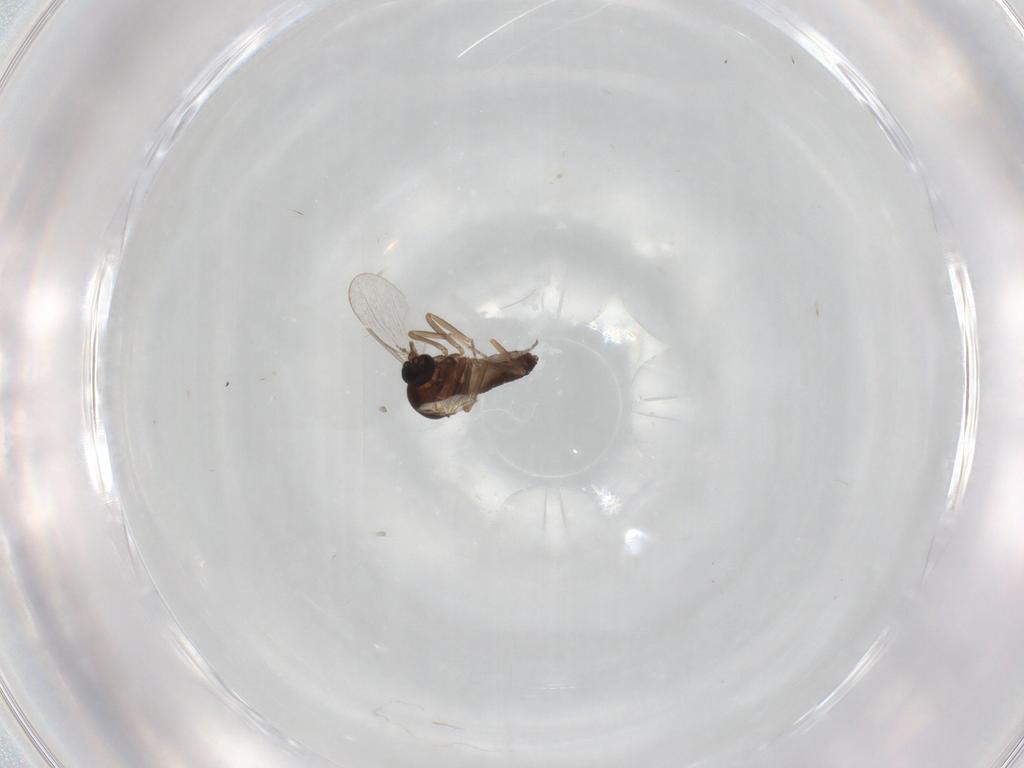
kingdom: Animalia
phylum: Arthropoda
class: Insecta
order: Diptera
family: Ceratopogonidae
